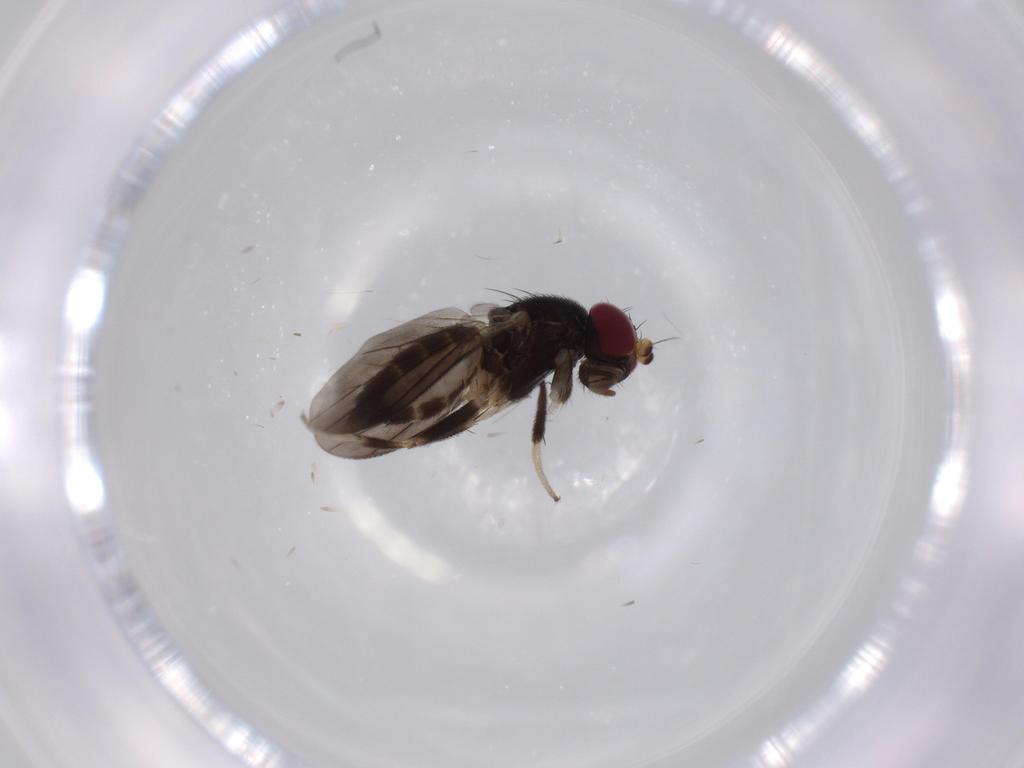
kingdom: Animalia
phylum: Arthropoda
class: Insecta
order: Diptera
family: Clusiidae
